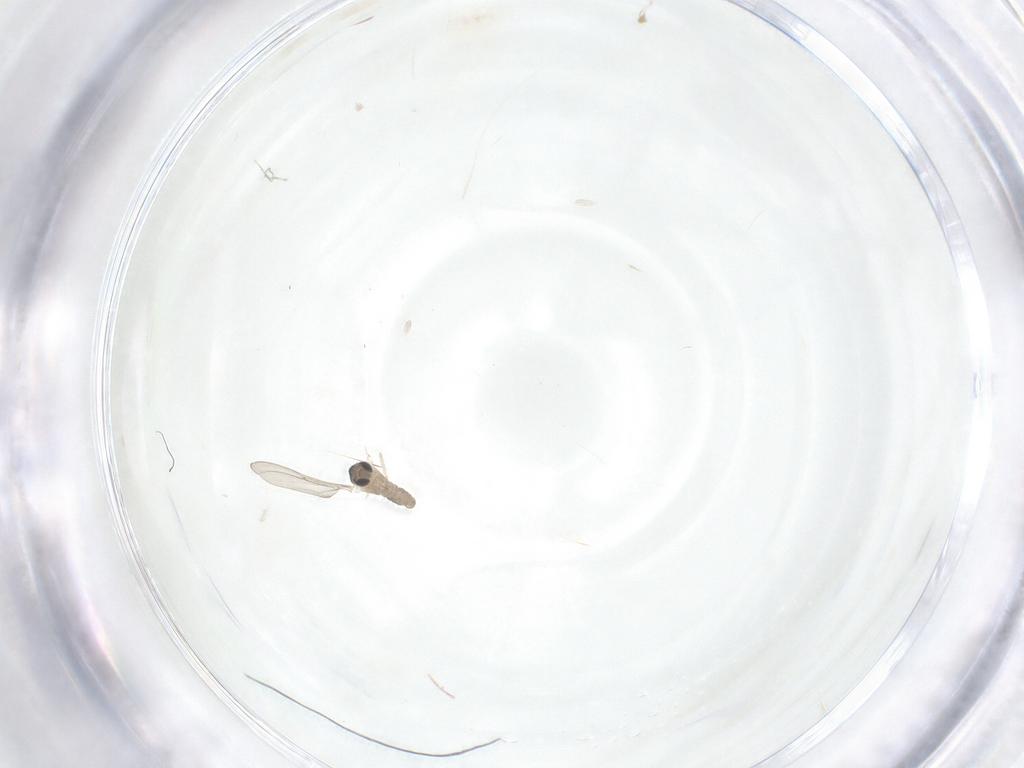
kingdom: Animalia
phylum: Arthropoda
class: Insecta
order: Diptera
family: Cecidomyiidae
